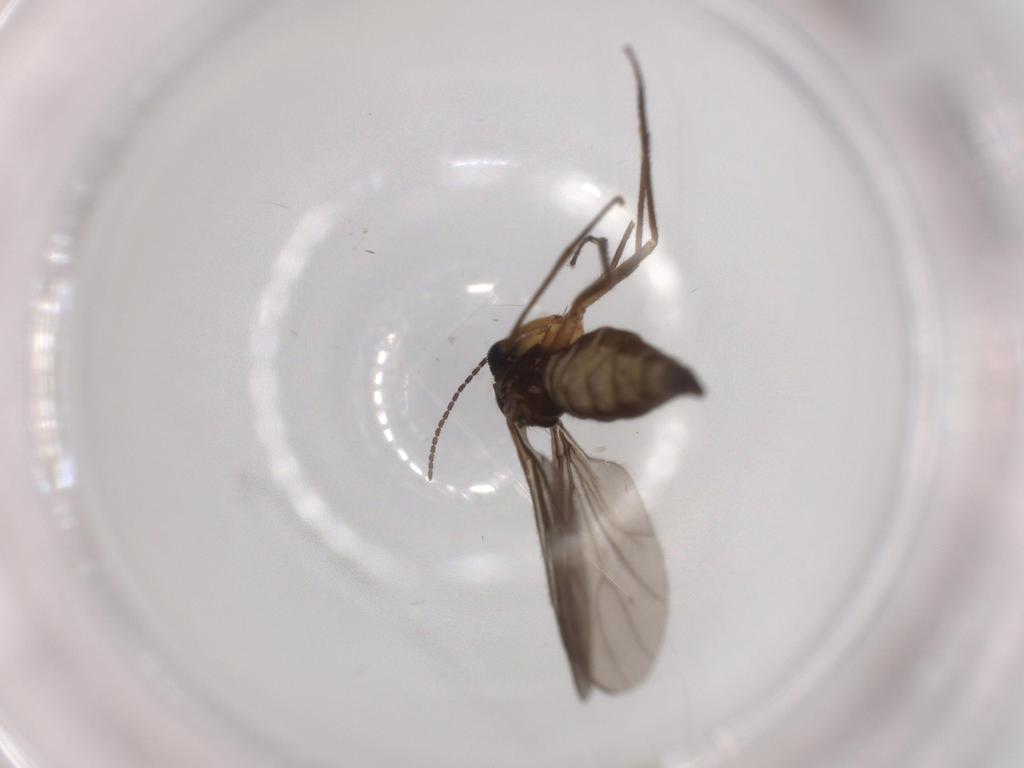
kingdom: Animalia
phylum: Arthropoda
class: Insecta
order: Diptera
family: Sciaridae
